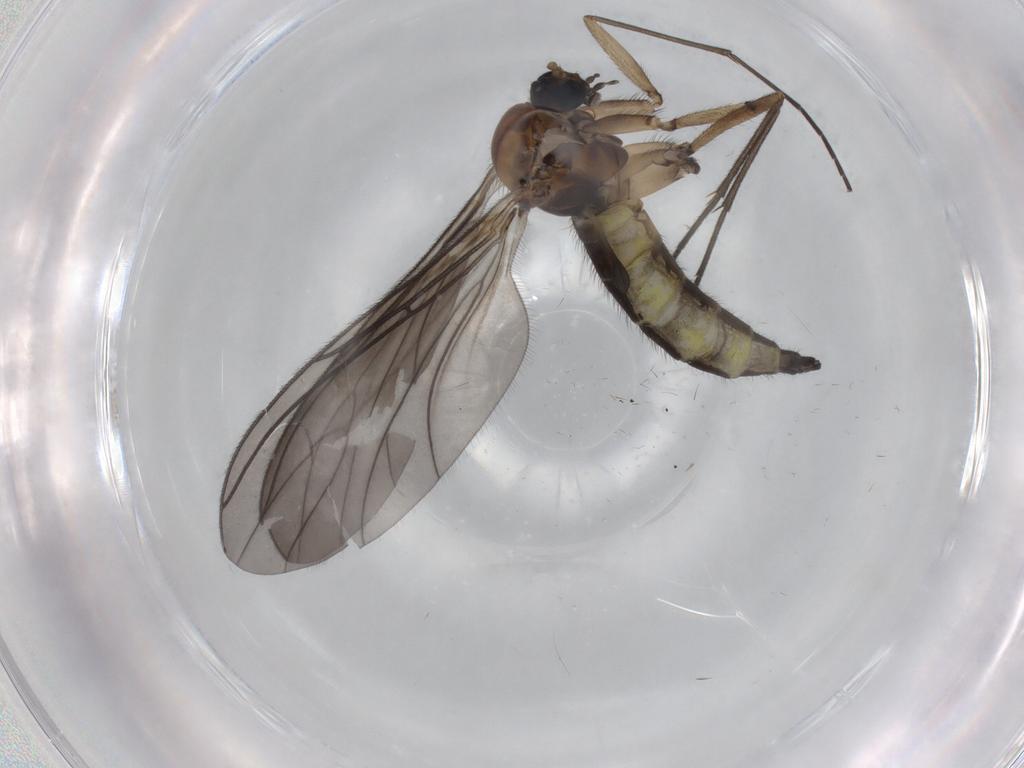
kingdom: Animalia
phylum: Arthropoda
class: Insecta
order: Diptera
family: Sciaridae
